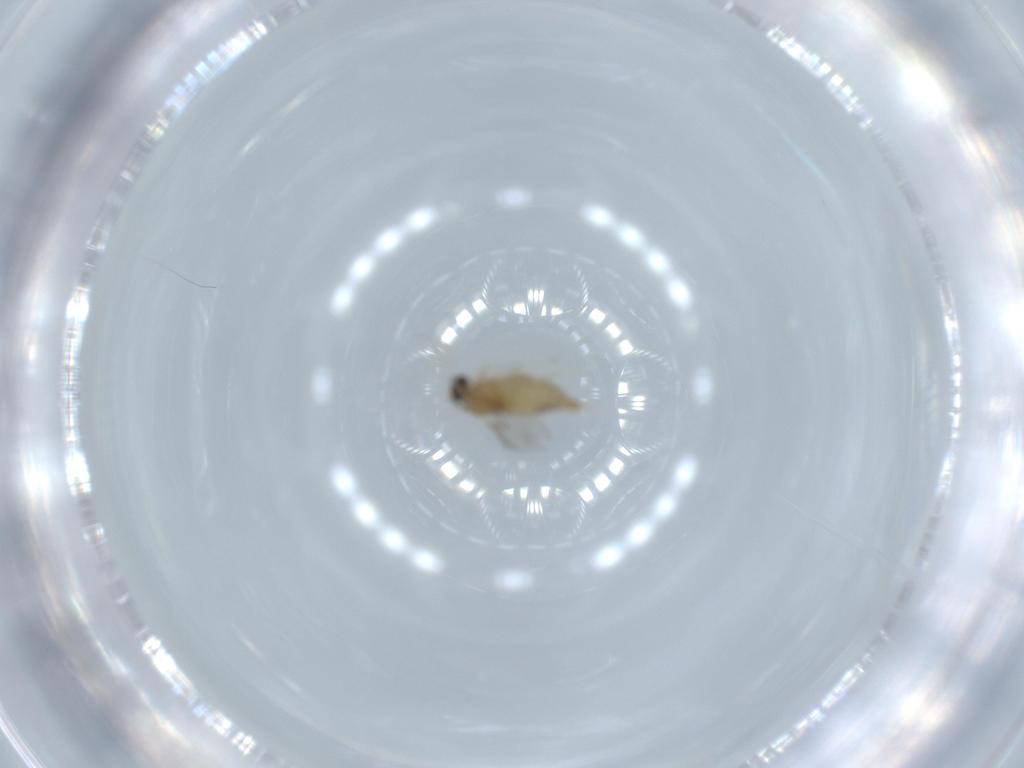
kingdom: Animalia
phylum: Arthropoda
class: Insecta
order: Diptera
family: Cecidomyiidae
